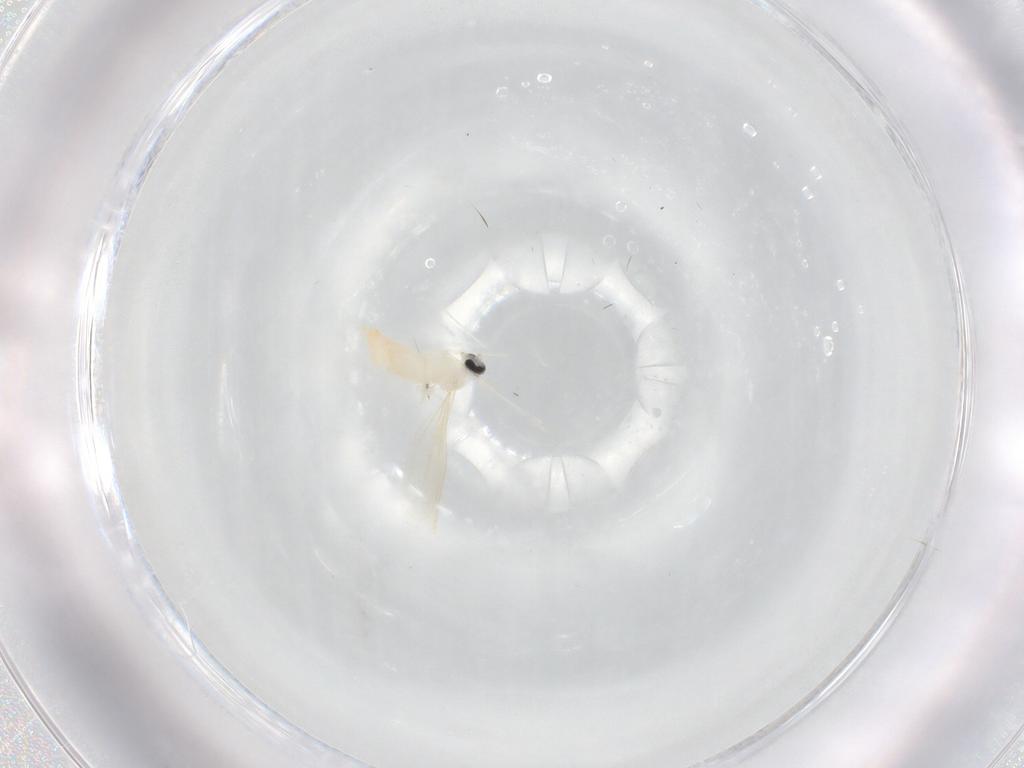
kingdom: Animalia
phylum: Arthropoda
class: Insecta
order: Diptera
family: Cecidomyiidae
